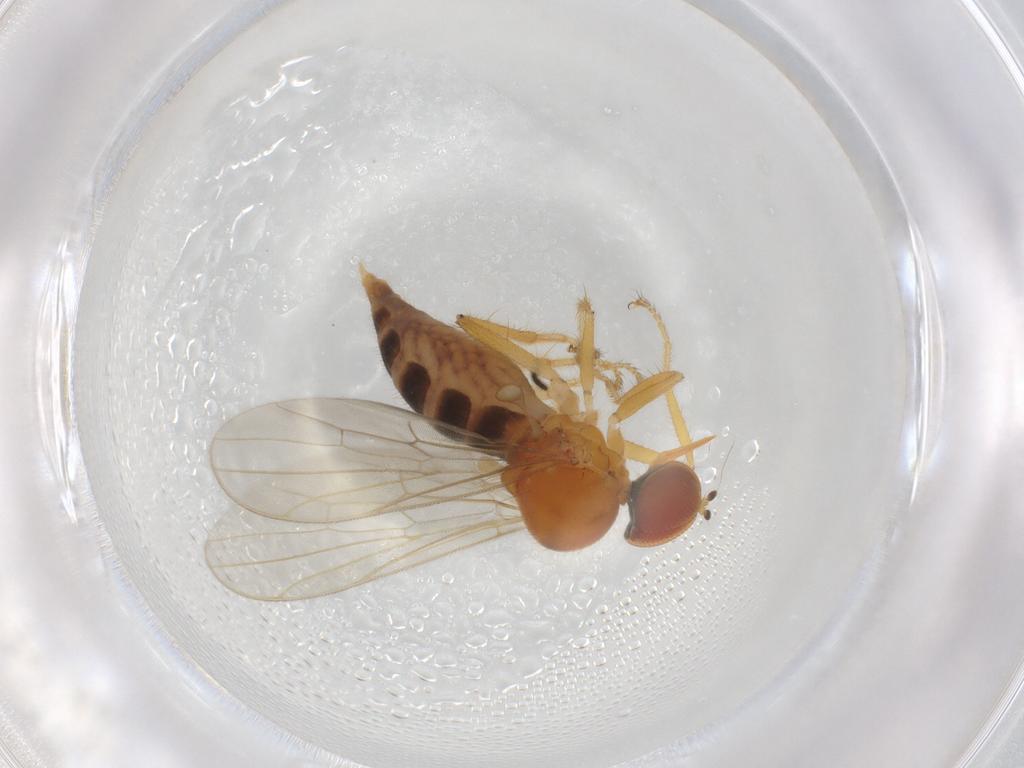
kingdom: Animalia
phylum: Arthropoda
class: Insecta
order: Diptera
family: Hybotidae
